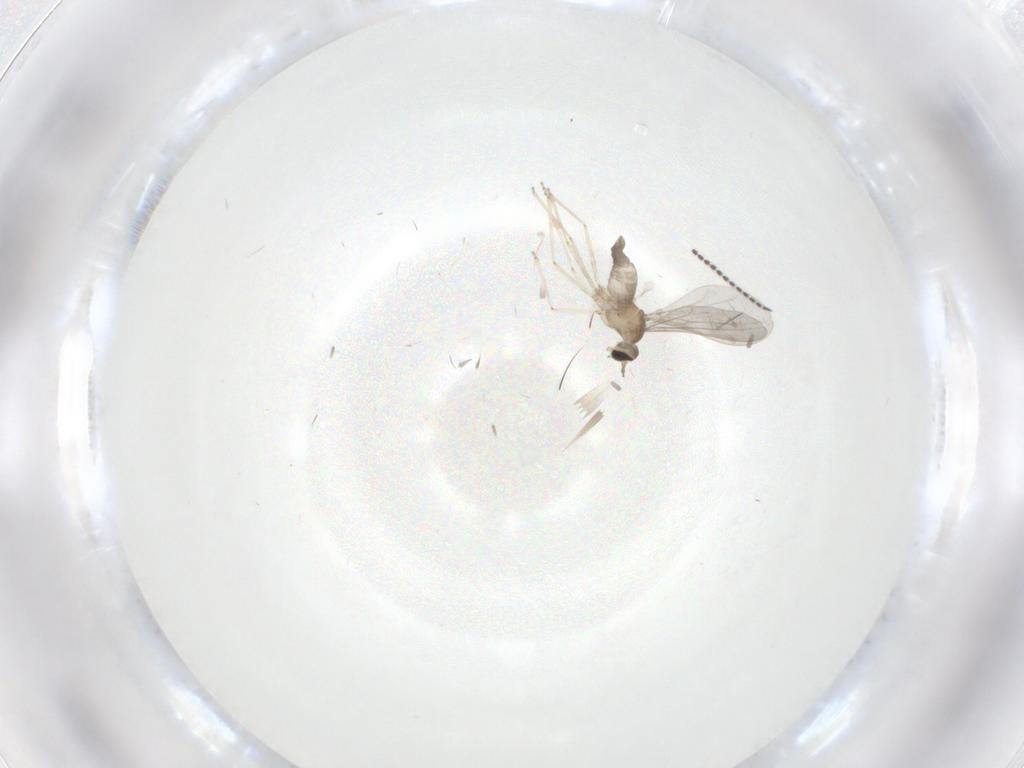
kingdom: Animalia
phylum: Arthropoda
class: Insecta
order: Diptera
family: Cecidomyiidae
